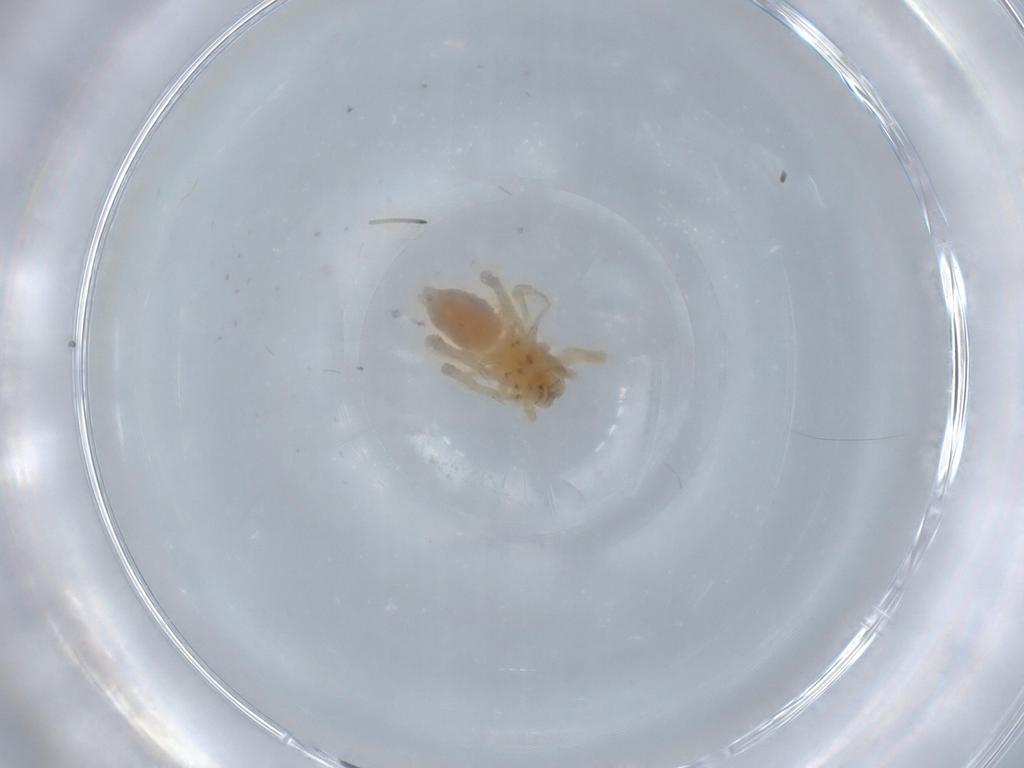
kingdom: Animalia
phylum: Arthropoda
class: Arachnida
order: Araneae
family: Anyphaenidae
